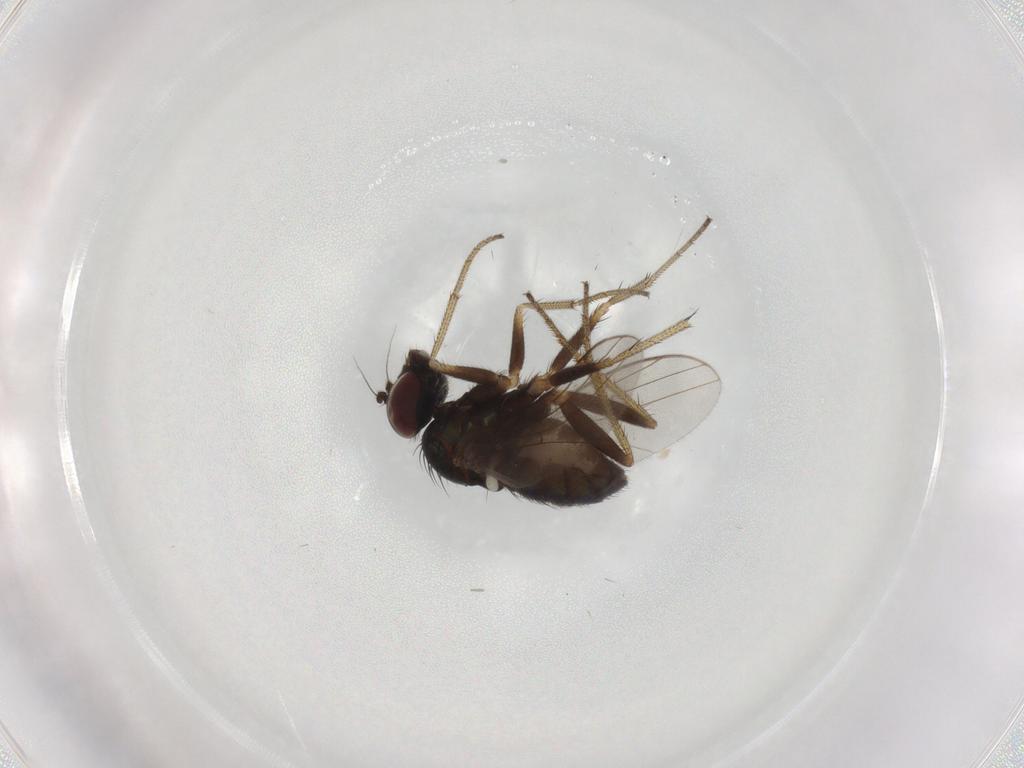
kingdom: Animalia
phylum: Arthropoda
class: Insecta
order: Diptera
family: Dolichopodidae
